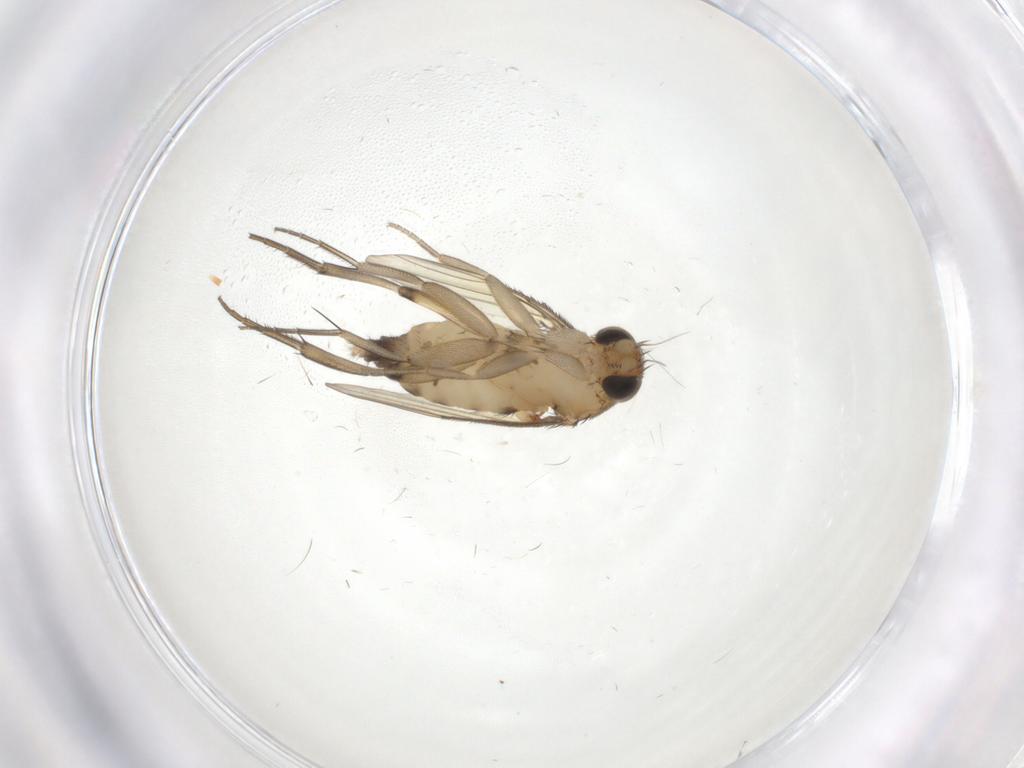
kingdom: Animalia
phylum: Arthropoda
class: Insecta
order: Diptera
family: Phoridae
